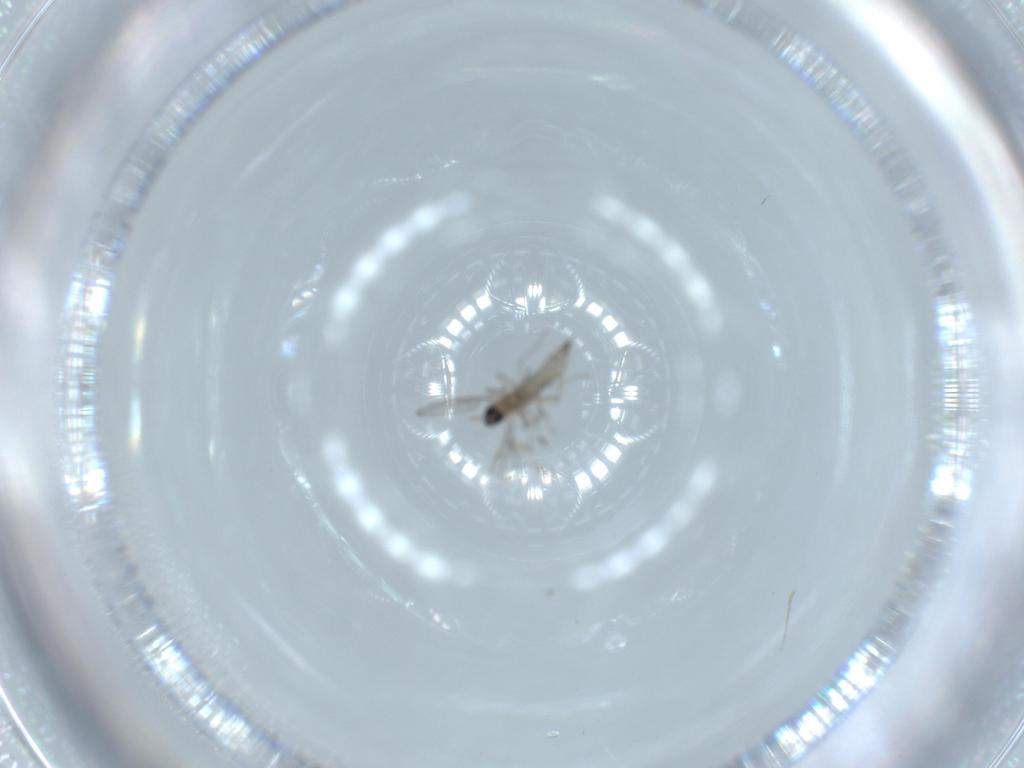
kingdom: Animalia
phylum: Arthropoda
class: Insecta
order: Diptera
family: Cecidomyiidae
